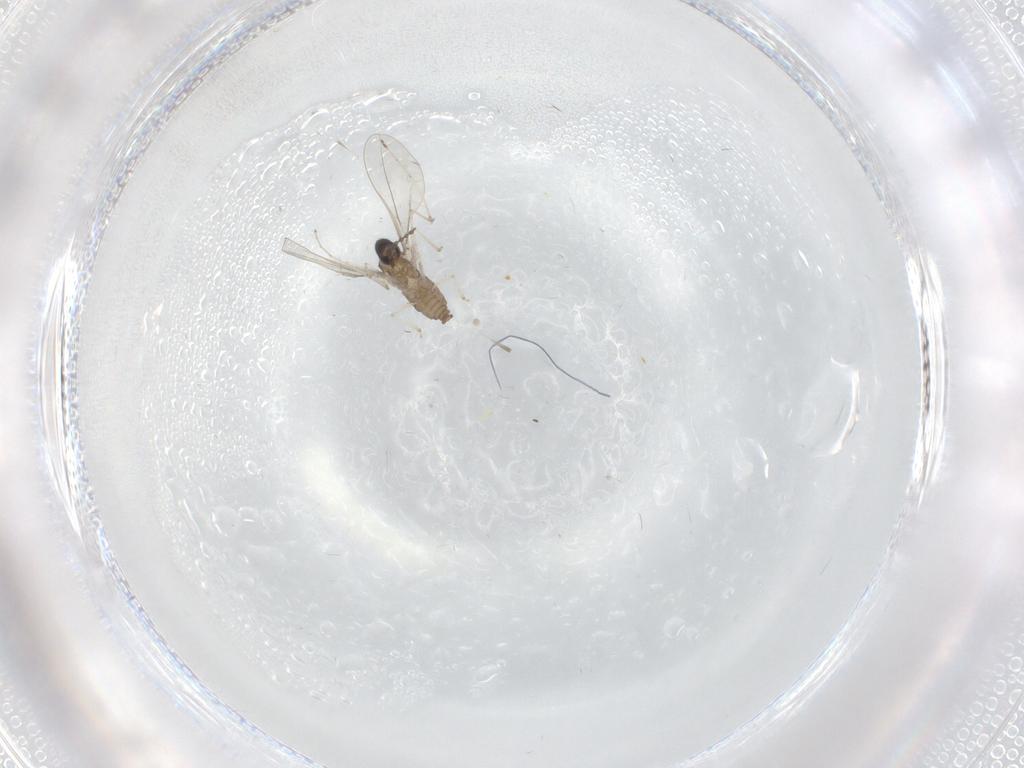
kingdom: Animalia
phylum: Arthropoda
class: Insecta
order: Diptera
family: Cecidomyiidae
